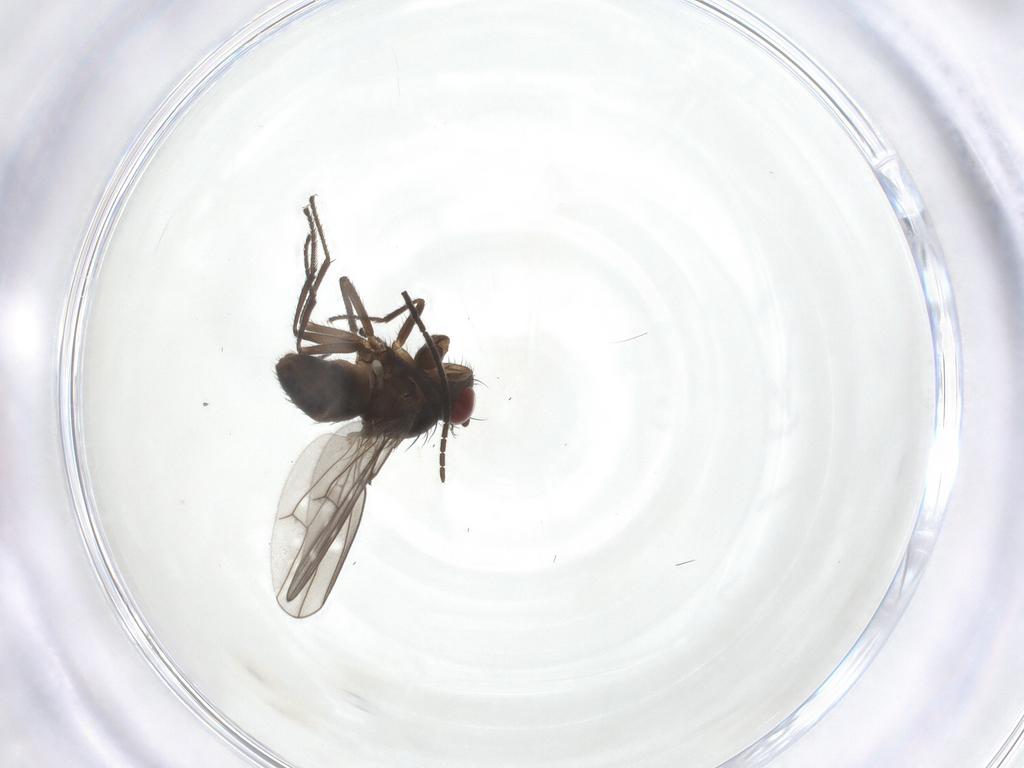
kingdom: Animalia
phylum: Arthropoda
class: Insecta
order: Diptera
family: Ephydridae
